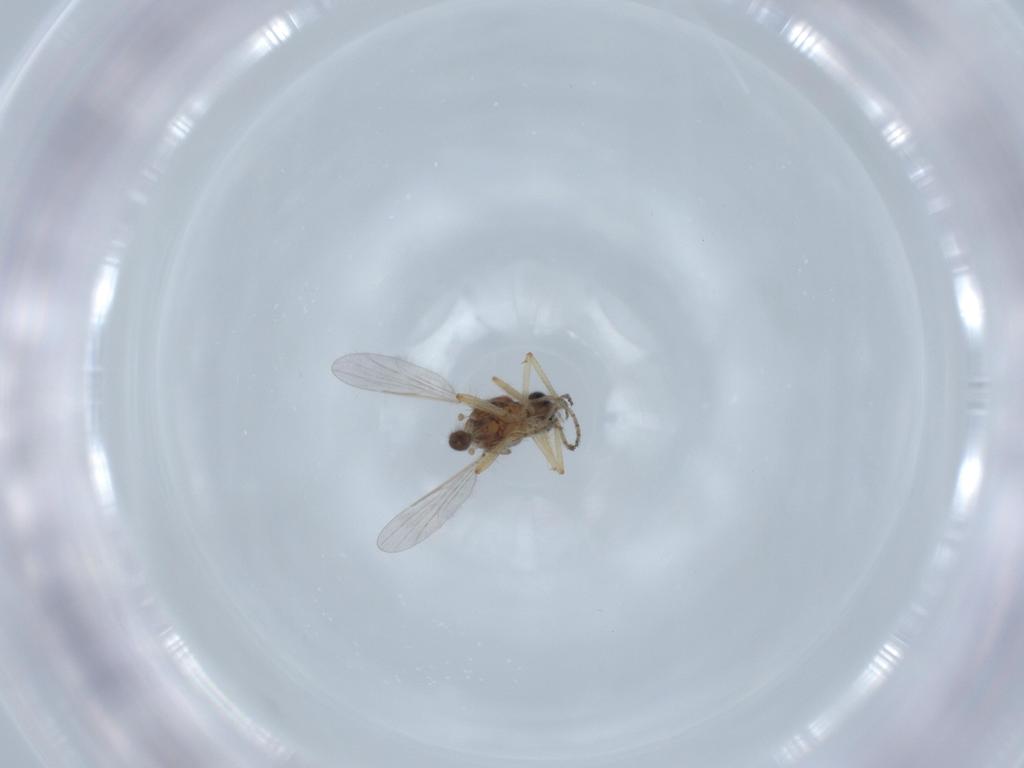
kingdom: Animalia
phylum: Arthropoda
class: Insecta
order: Diptera
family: Ceratopogonidae
